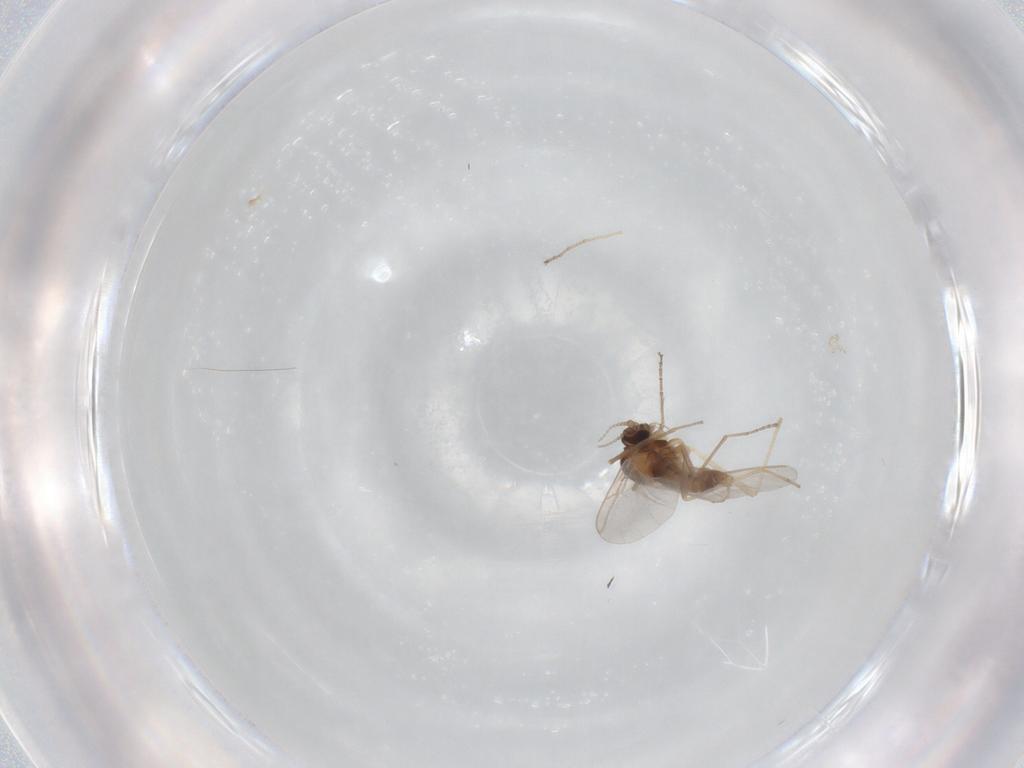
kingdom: Animalia
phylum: Arthropoda
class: Insecta
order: Diptera
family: Cecidomyiidae
